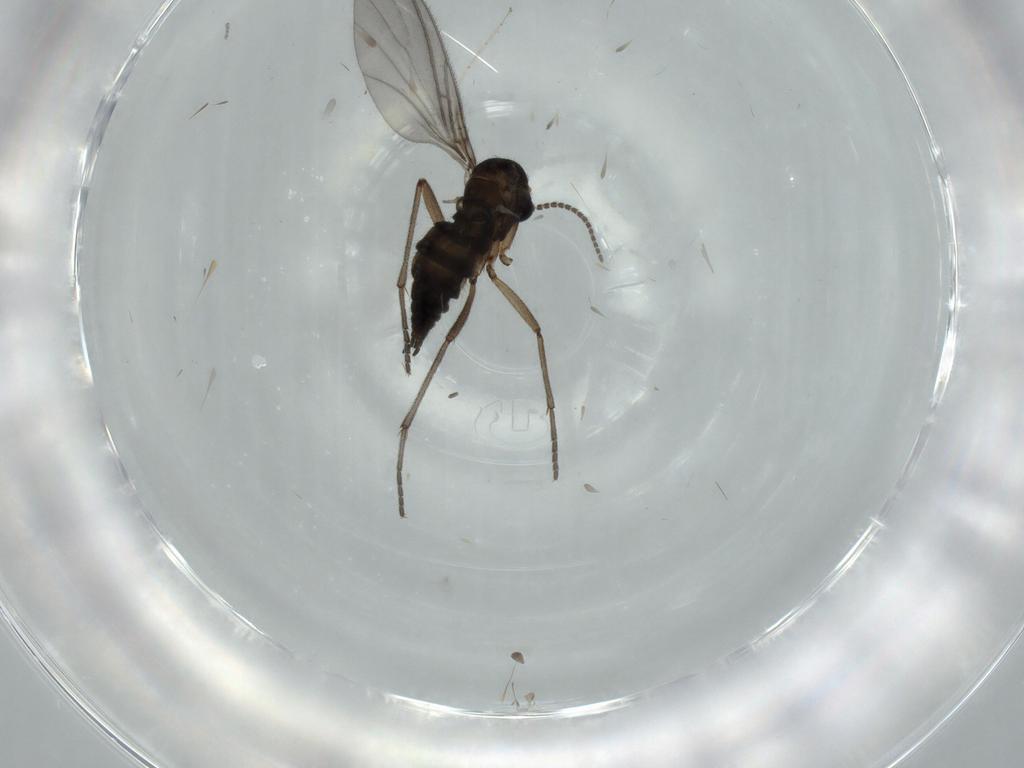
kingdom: Animalia
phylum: Arthropoda
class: Insecta
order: Diptera
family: Sciaridae
